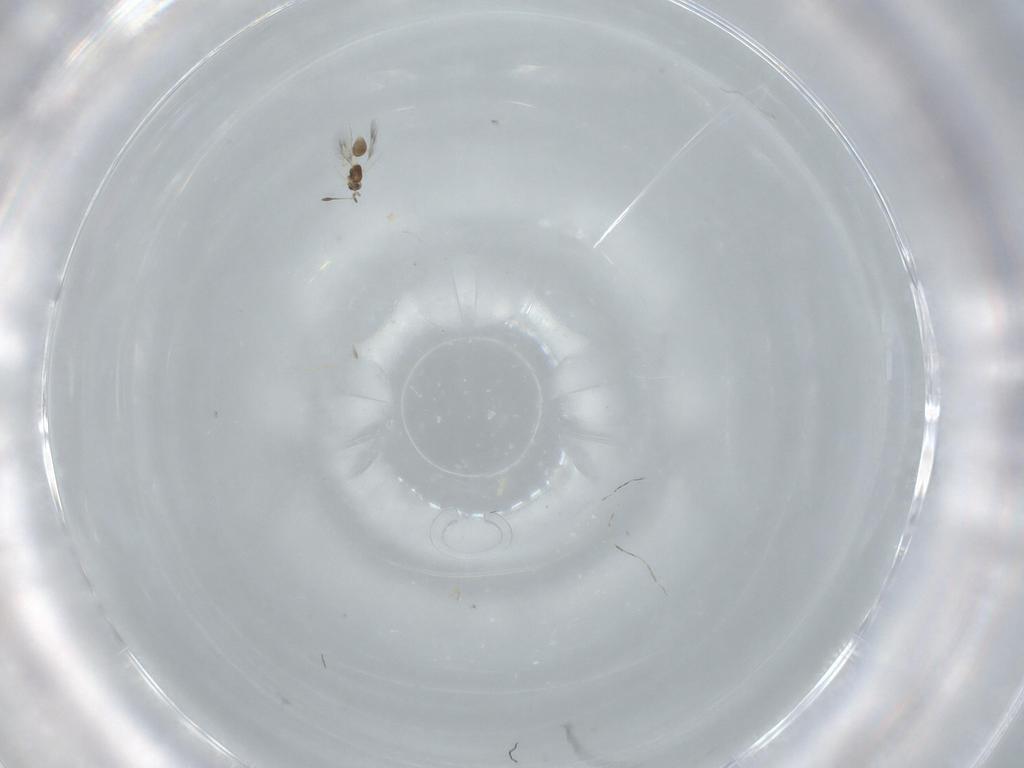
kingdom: Animalia
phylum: Arthropoda
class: Insecta
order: Hymenoptera
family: Mymarommatidae
